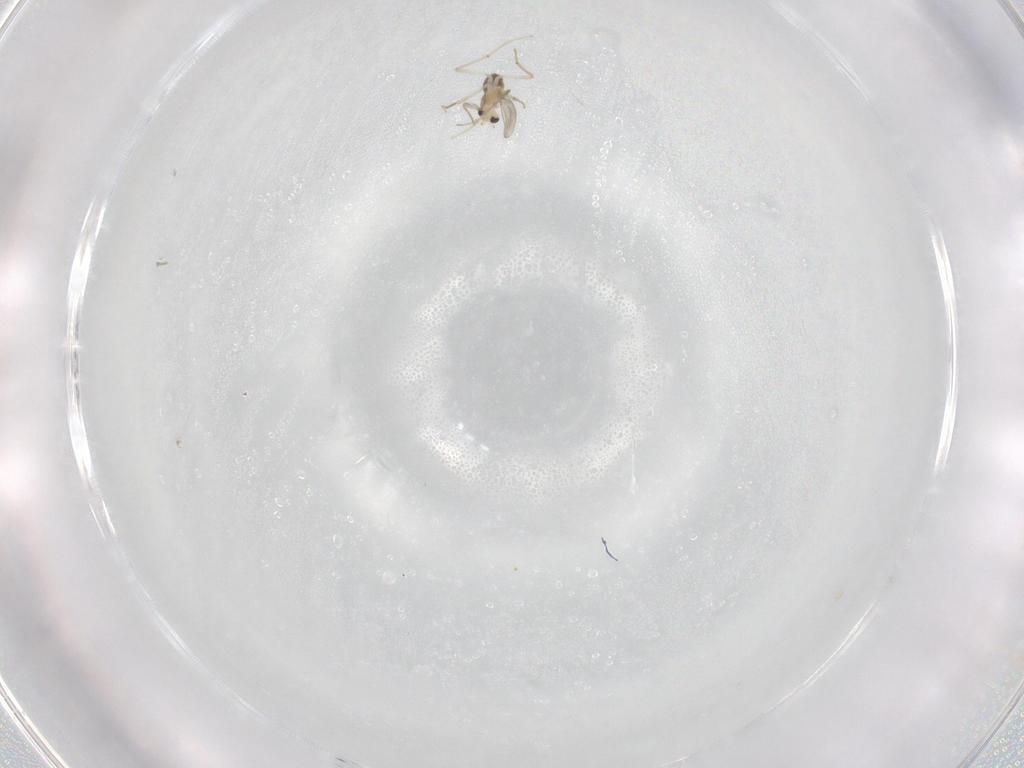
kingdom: Animalia
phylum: Arthropoda
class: Insecta
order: Diptera
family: Chironomidae
